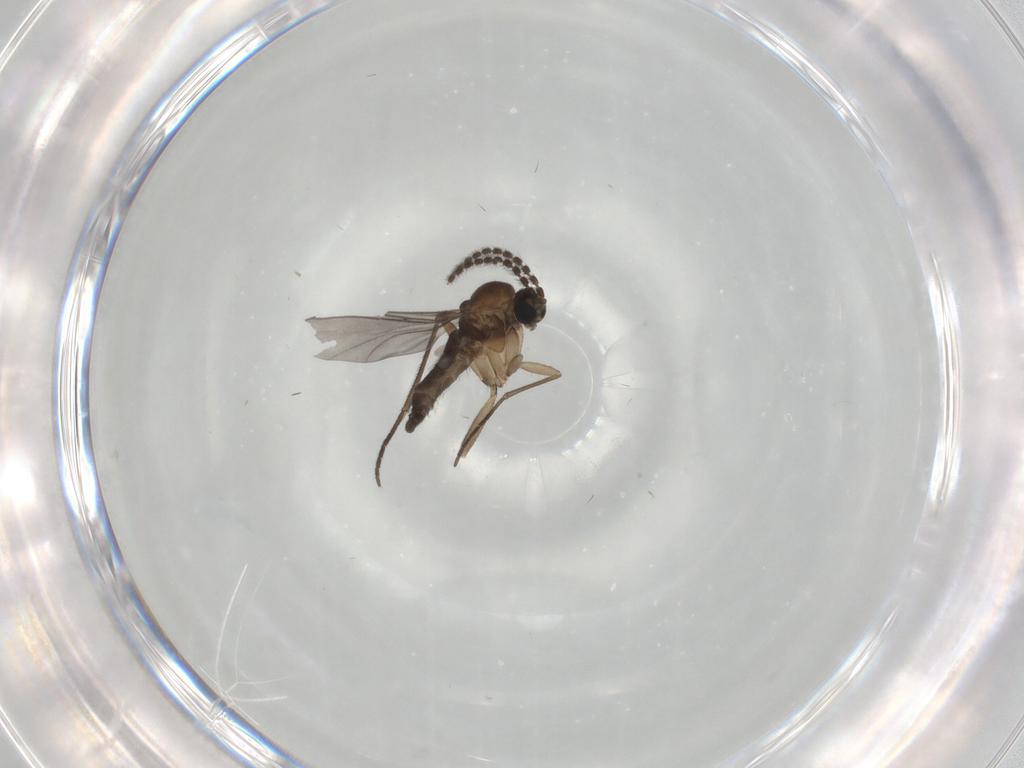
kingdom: Animalia
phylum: Arthropoda
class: Insecta
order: Diptera
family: Sciaridae
